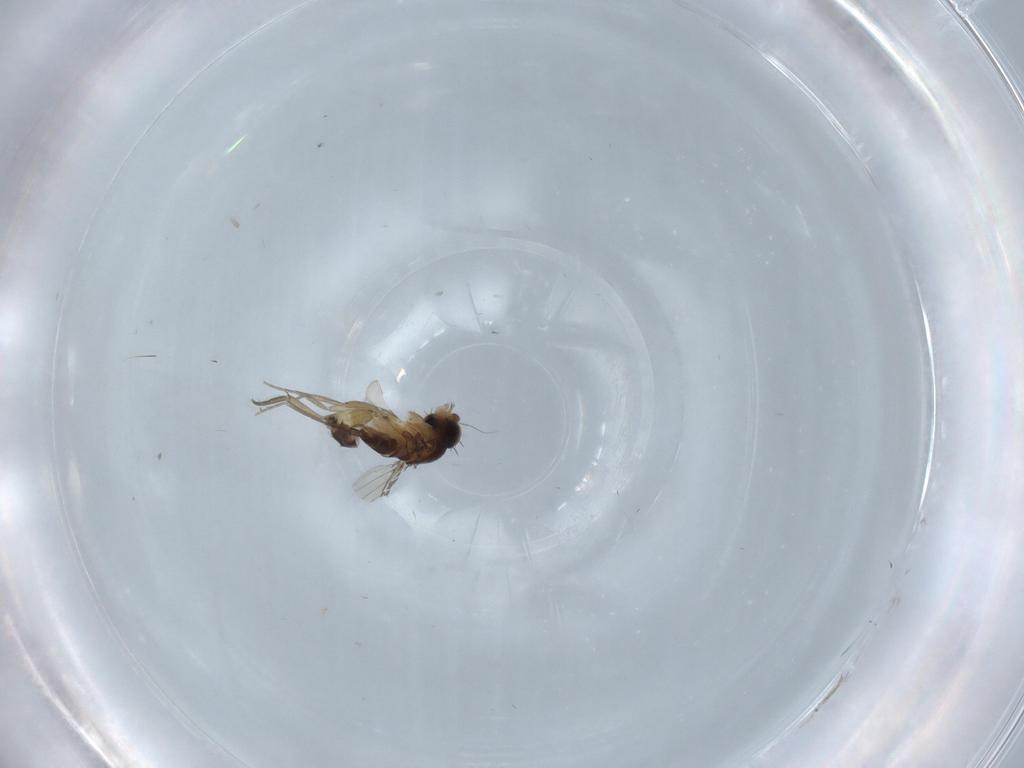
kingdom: Animalia
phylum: Arthropoda
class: Insecta
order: Diptera
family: Phoridae
